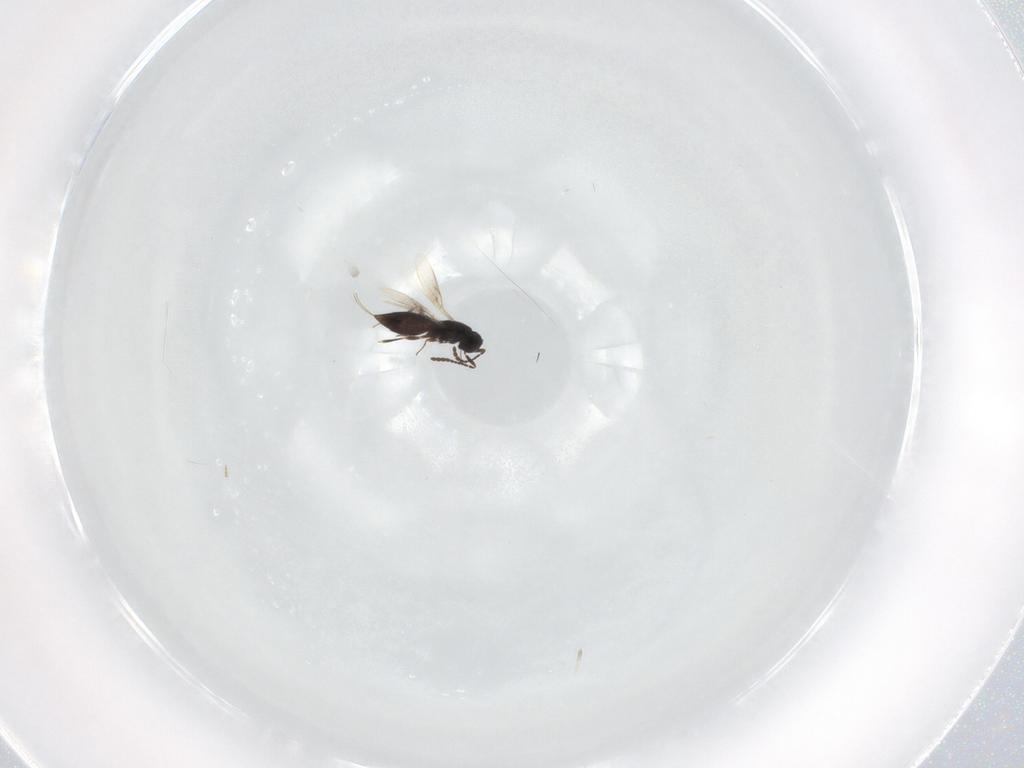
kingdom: Animalia
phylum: Arthropoda
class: Insecta
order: Hymenoptera
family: Scelionidae
